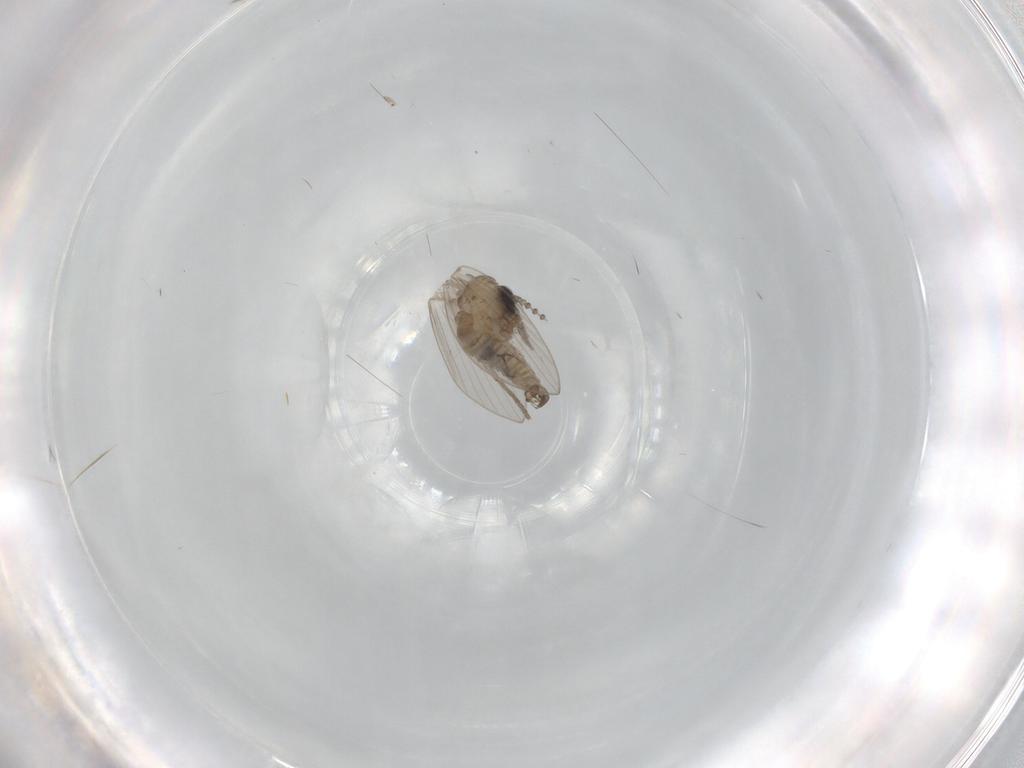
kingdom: Animalia
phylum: Arthropoda
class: Insecta
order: Diptera
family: Psychodidae
